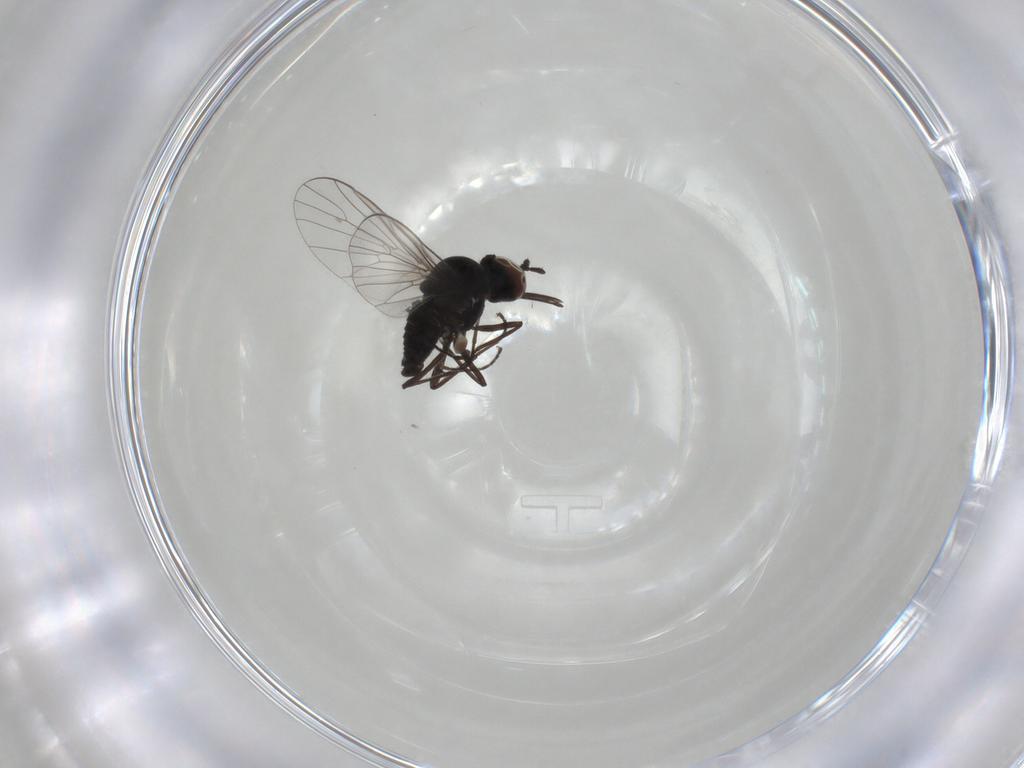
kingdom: Animalia
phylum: Arthropoda
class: Insecta
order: Diptera
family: Bombyliidae
